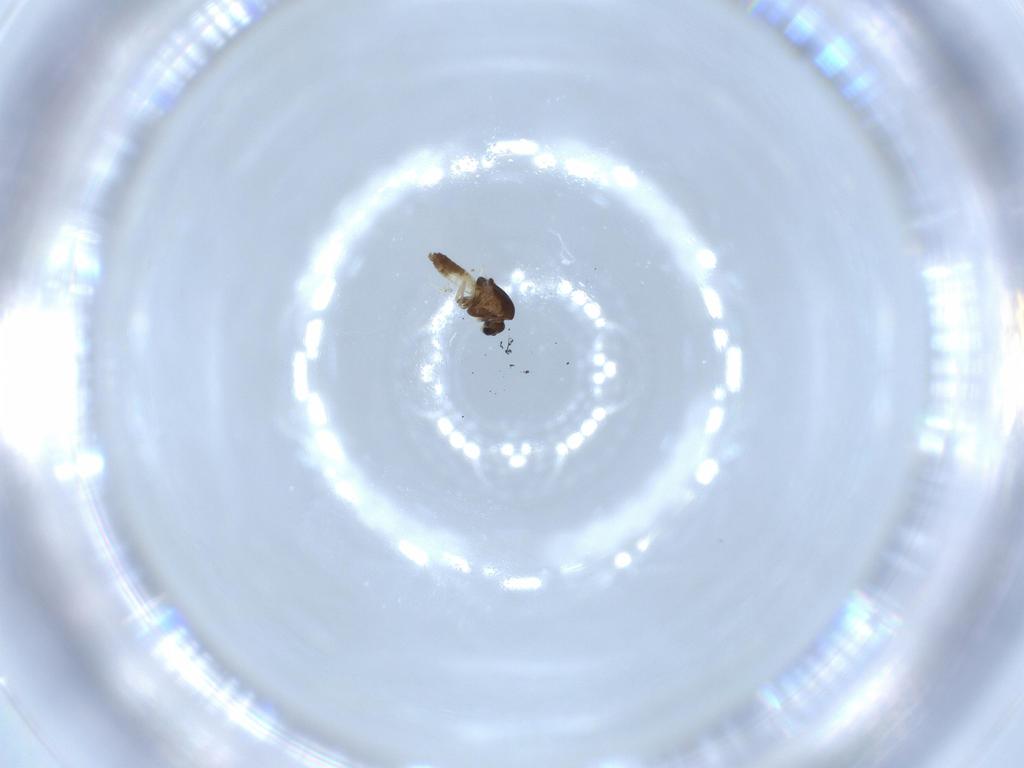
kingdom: Animalia
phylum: Arthropoda
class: Insecta
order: Diptera
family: Chironomidae
